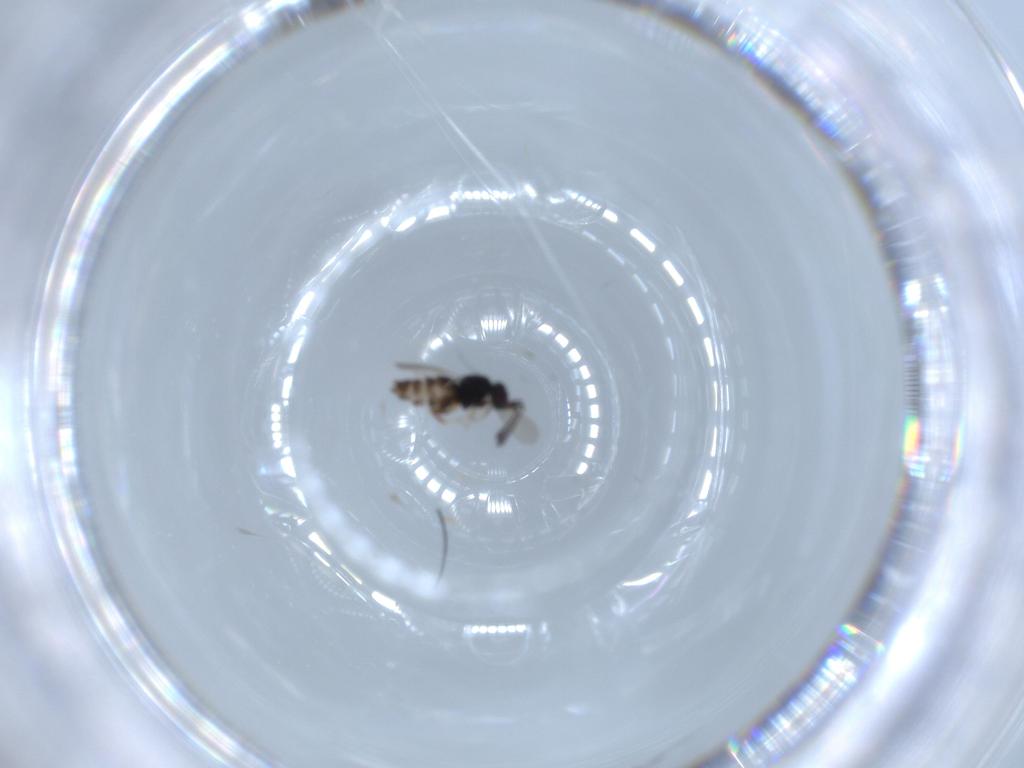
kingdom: Animalia
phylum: Arthropoda
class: Insecta
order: Hymenoptera
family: Ceraphronidae
